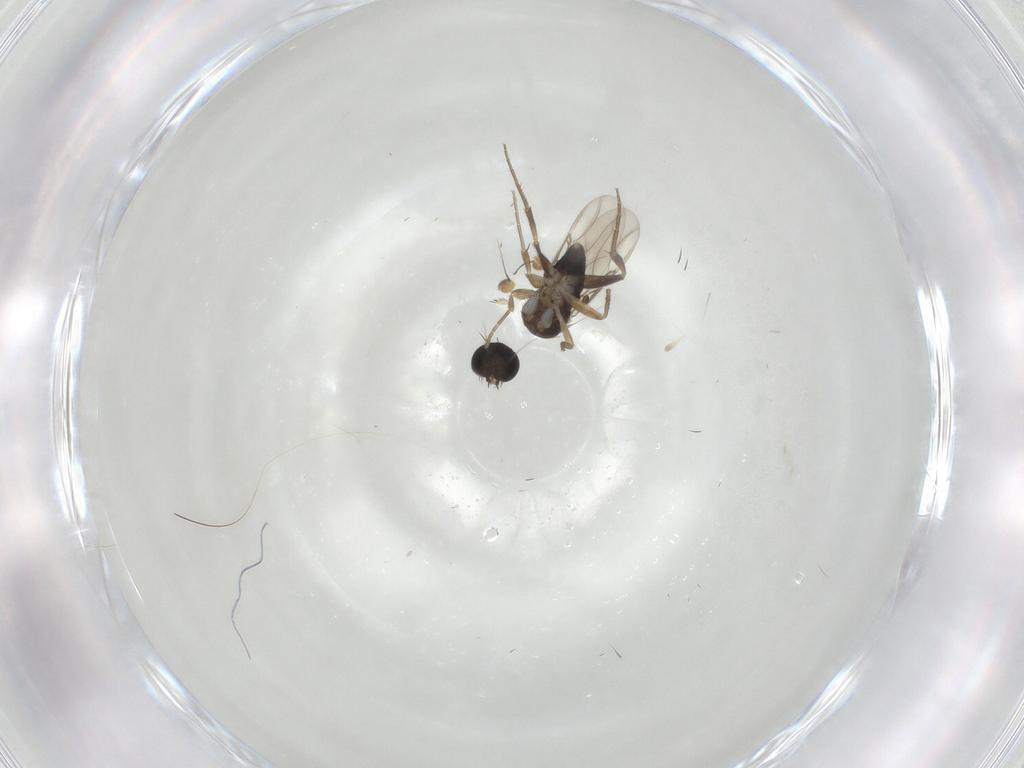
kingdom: Animalia
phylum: Arthropoda
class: Insecta
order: Diptera
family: Phoridae
